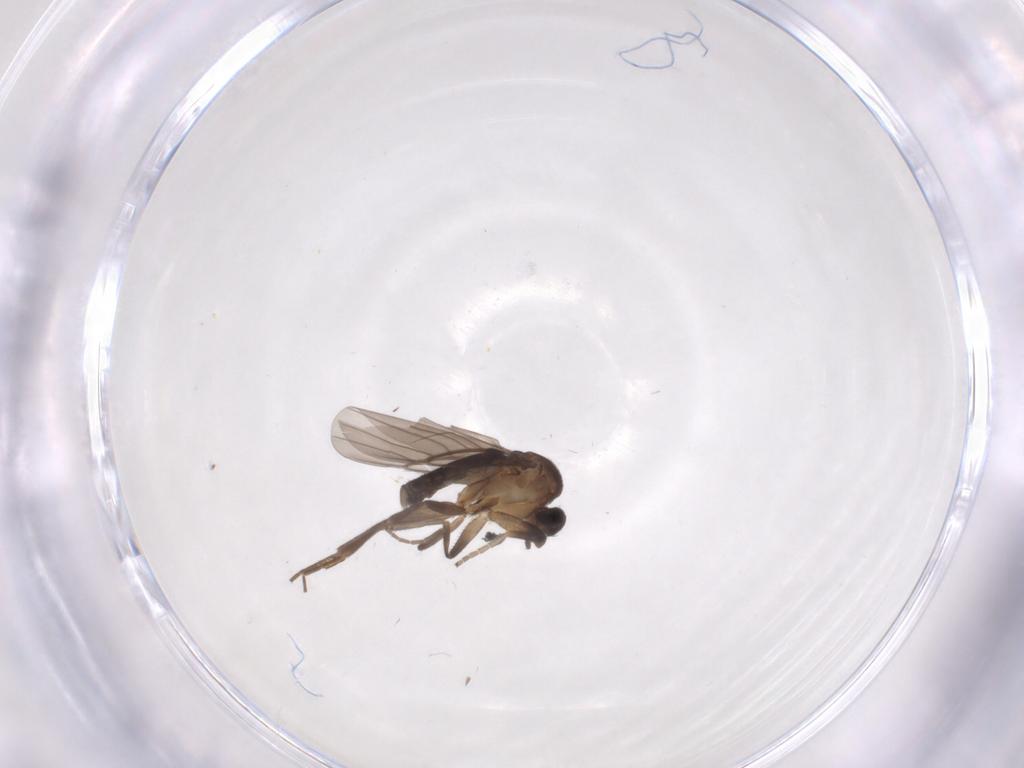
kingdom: Animalia
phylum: Arthropoda
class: Insecta
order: Diptera
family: Phoridae
